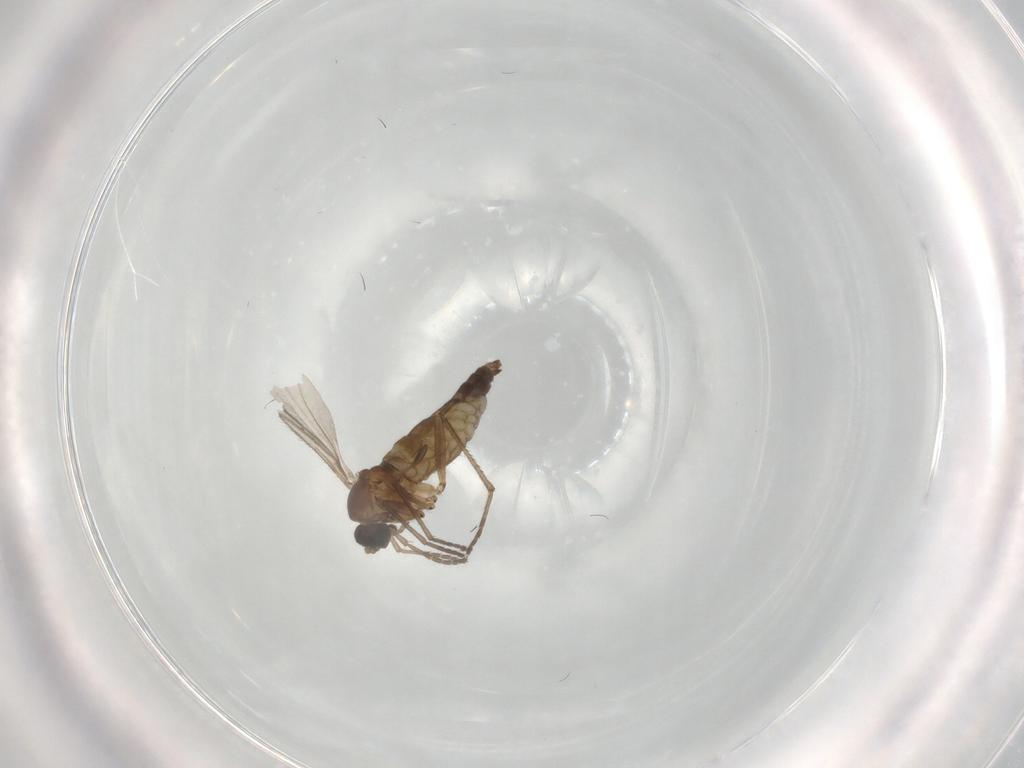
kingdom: Animalia
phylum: Arthropoda
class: Insecta
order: Diptera
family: Sciaridae
